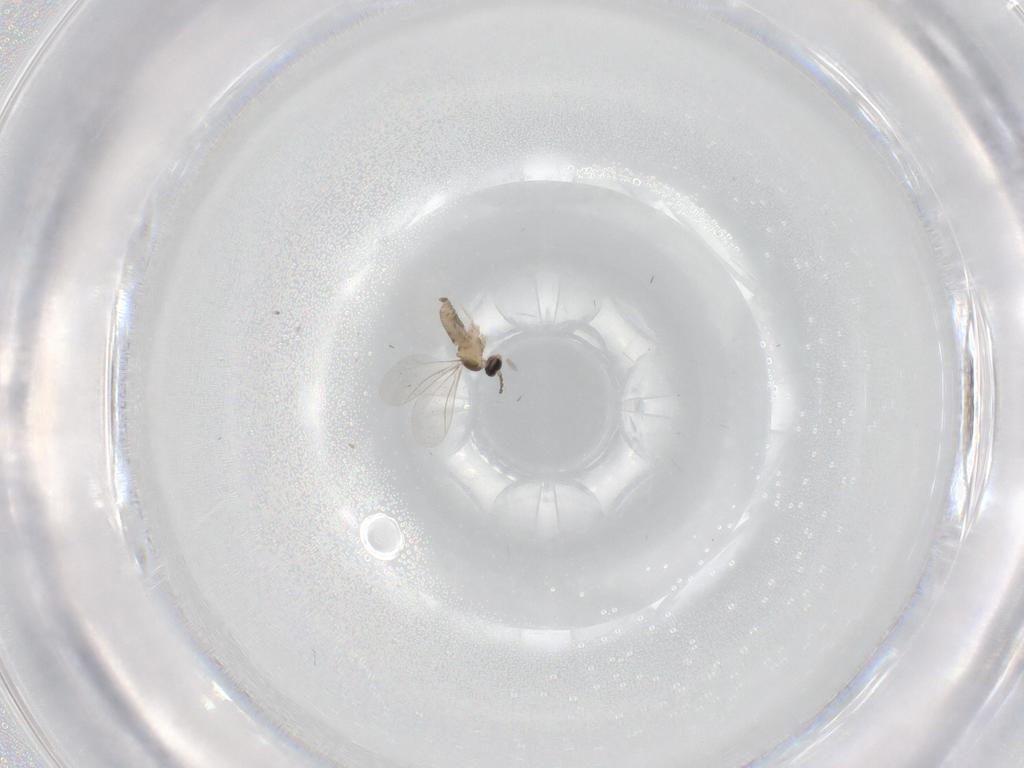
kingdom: Animalia
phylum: Arthropoda
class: Insecta
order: Diptera
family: Cecidomyiidae
